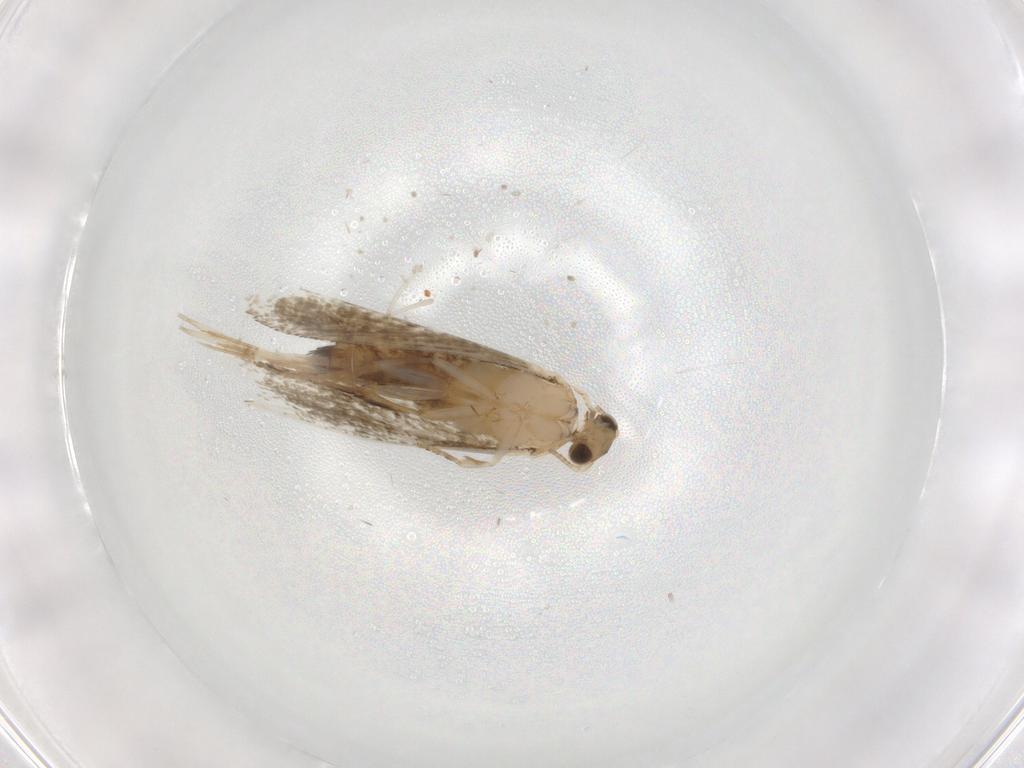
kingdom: Animalia
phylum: Arthropoda
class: Insecta
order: Lepidoptera
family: Crambidae
